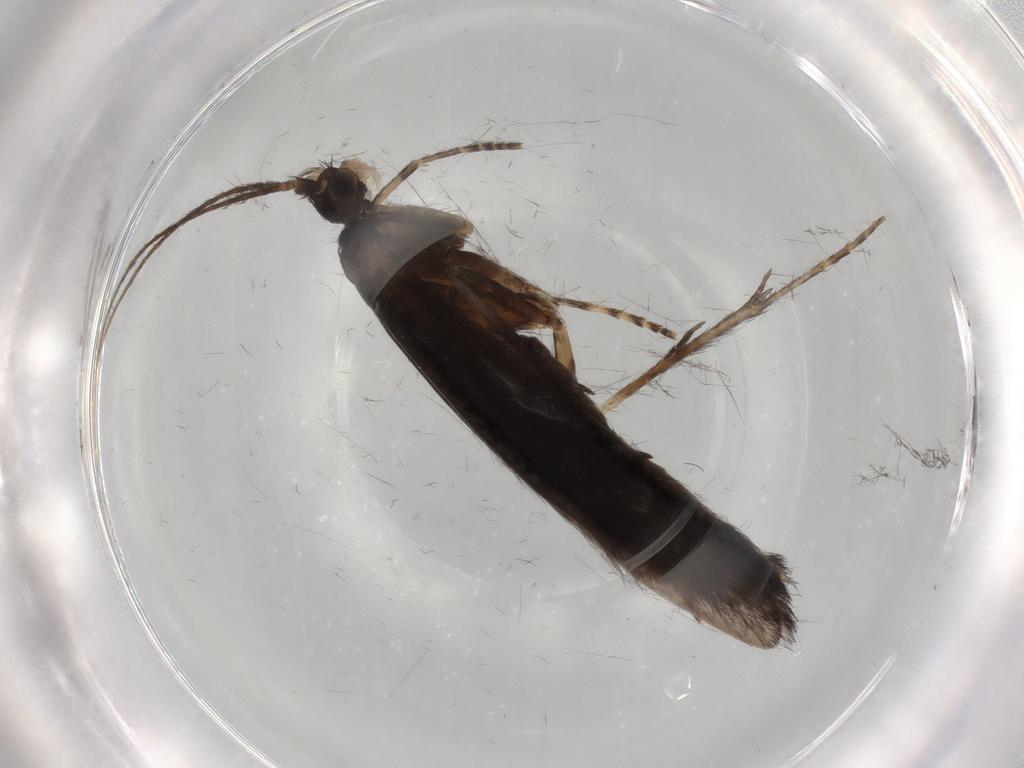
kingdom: Animalia
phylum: Arthropoda
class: Insecta
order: Trichoptera
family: Xiphocentronidae
